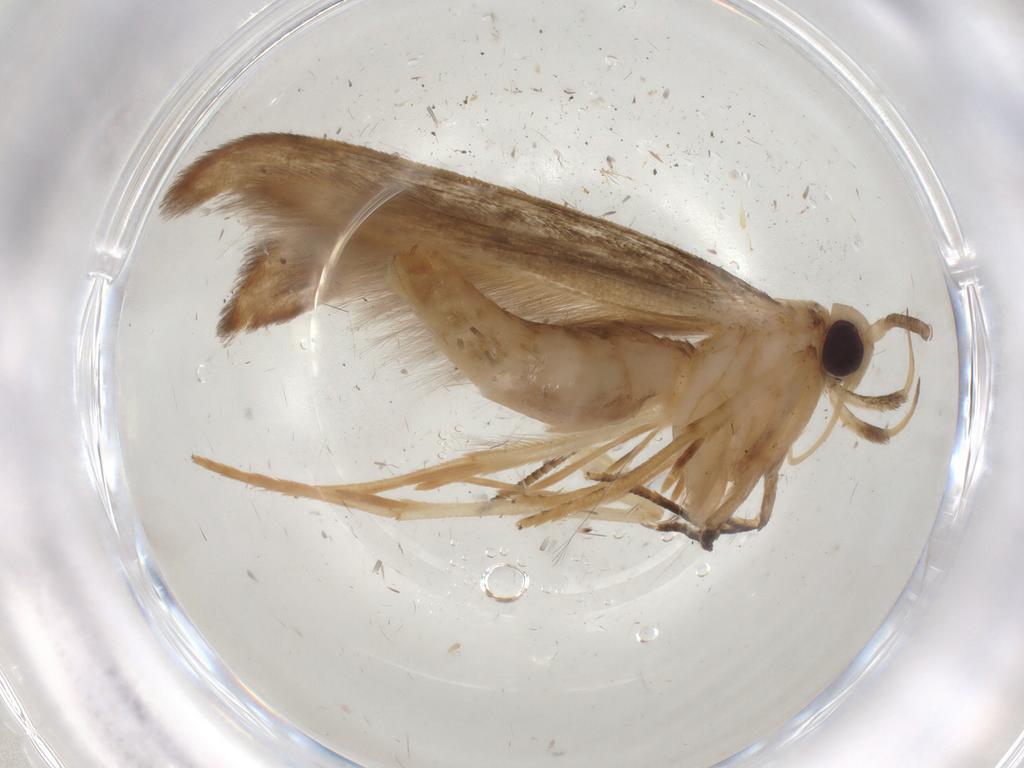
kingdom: Animalia
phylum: Arthropoda
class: Insecta
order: Lepidoptera
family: Nolidae
